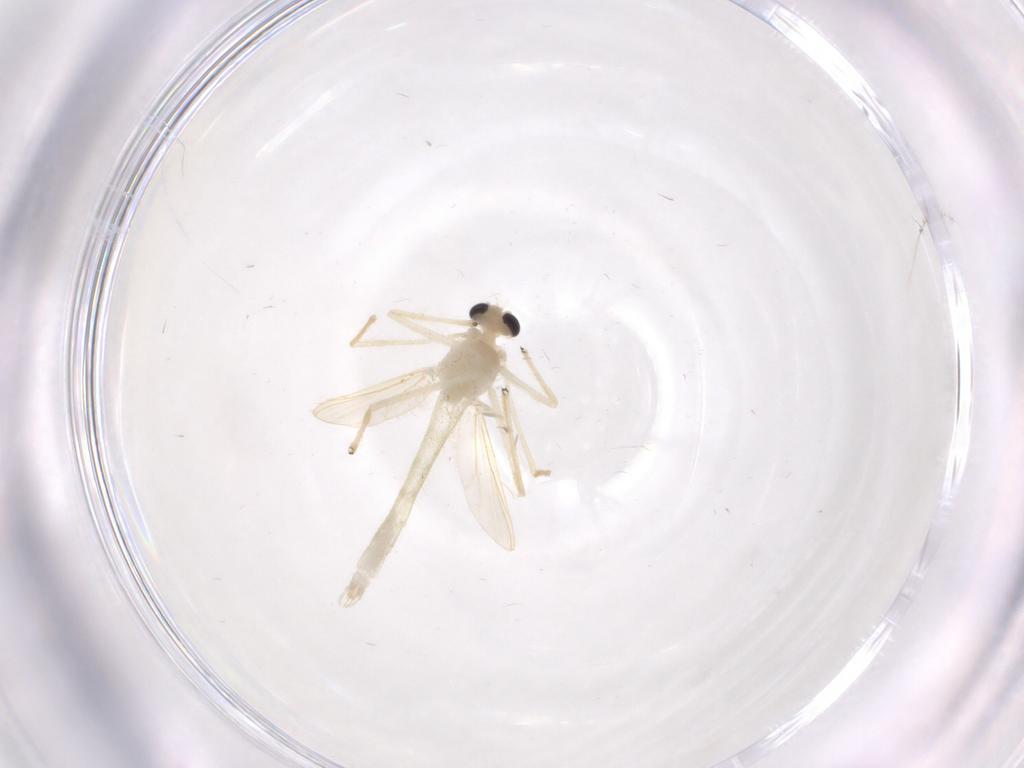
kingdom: Animalia
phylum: Arthropoda
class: Insecta
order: Diptera
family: Chironomidae
